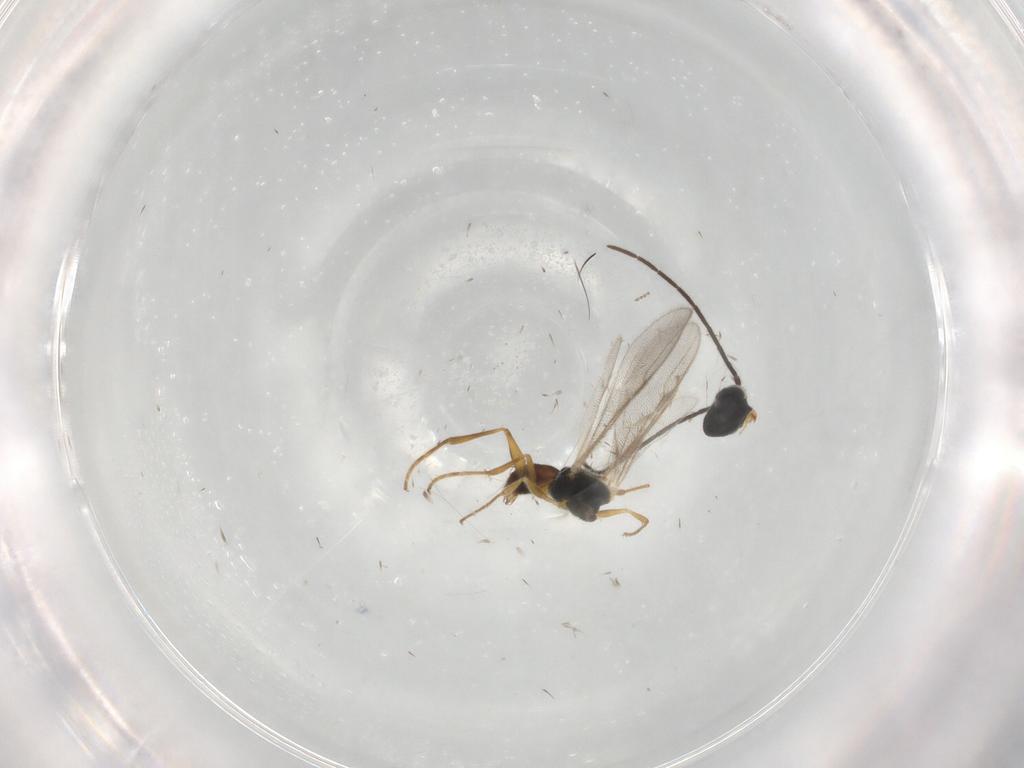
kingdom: Animalia
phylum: Arthropoda
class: Insecta
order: Hymenoptera
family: Dryinidae
